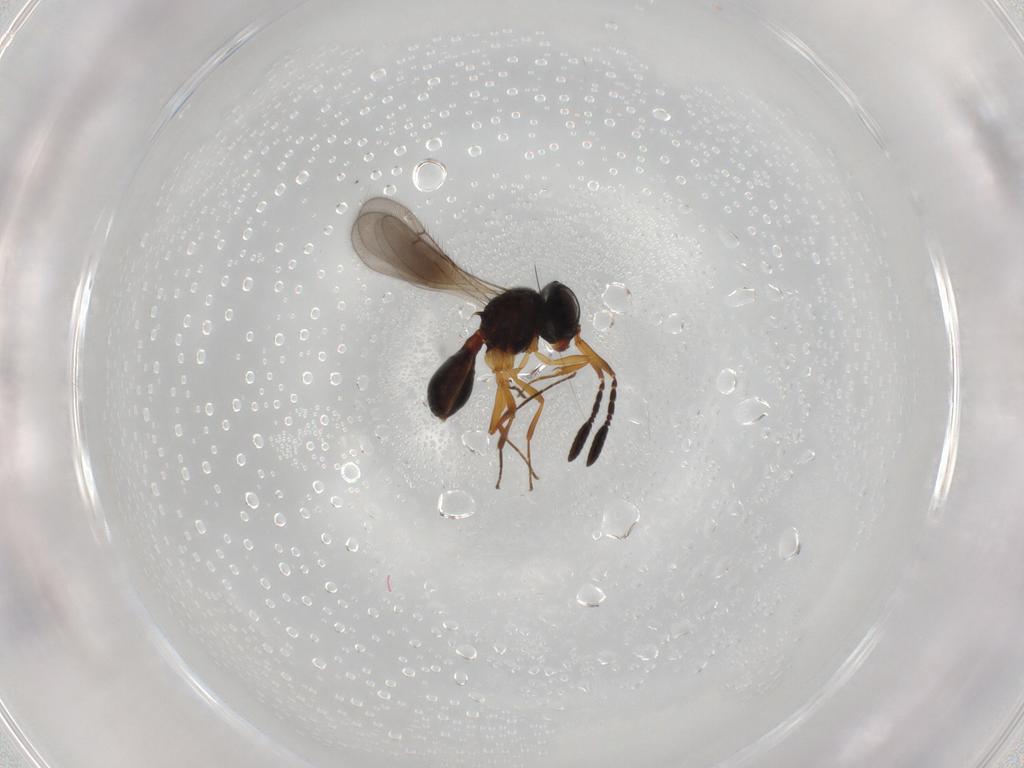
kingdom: Animalia
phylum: Arthropoda
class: Insecta
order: Hymenoptera
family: Scelionidae
